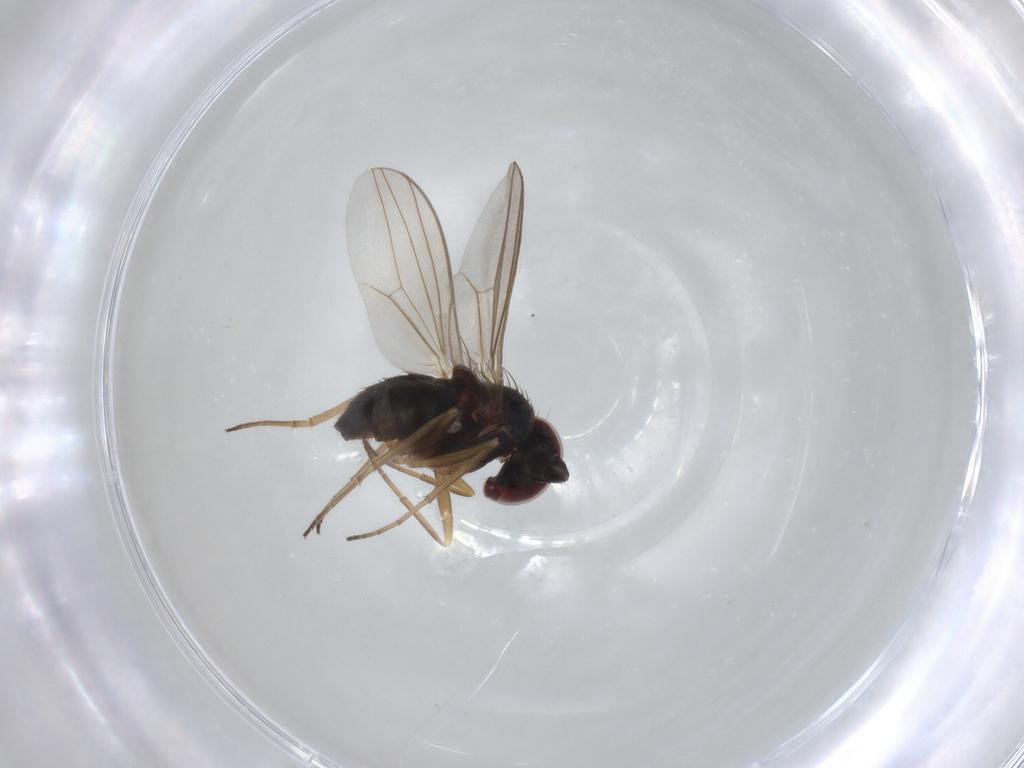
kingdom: Animalia
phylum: Arthropoda
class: Insecta
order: Diptera
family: Dolichopodidae
